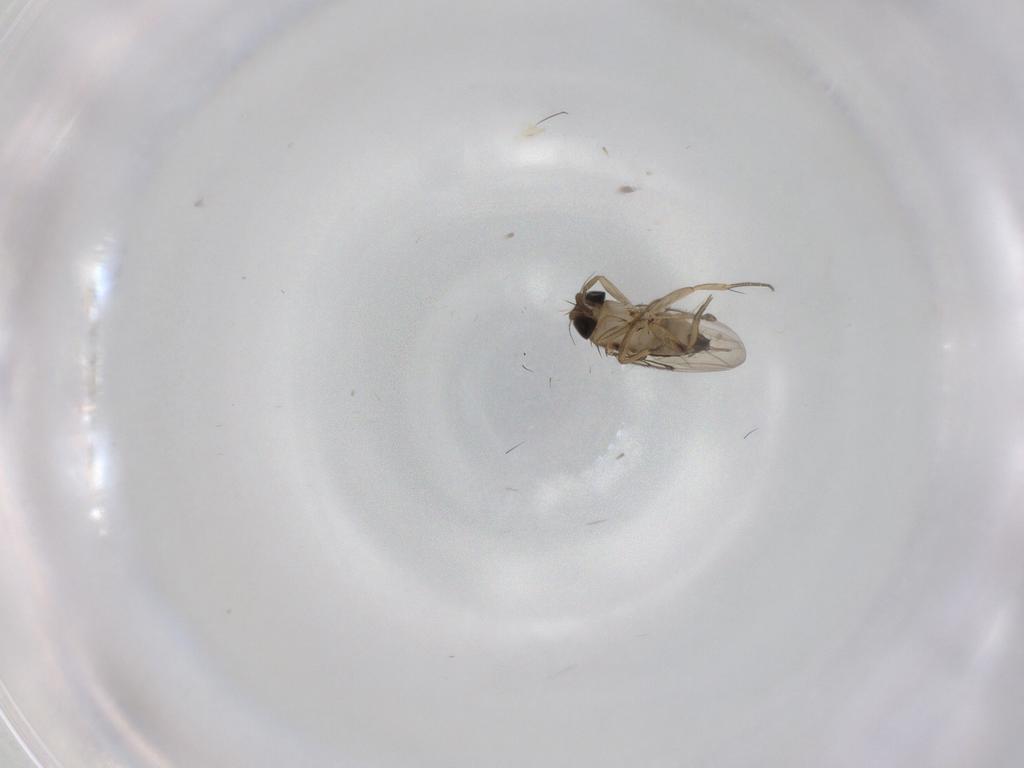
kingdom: Animalia
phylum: Arthropoda
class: Insecta
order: Diptera
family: Phoridae
